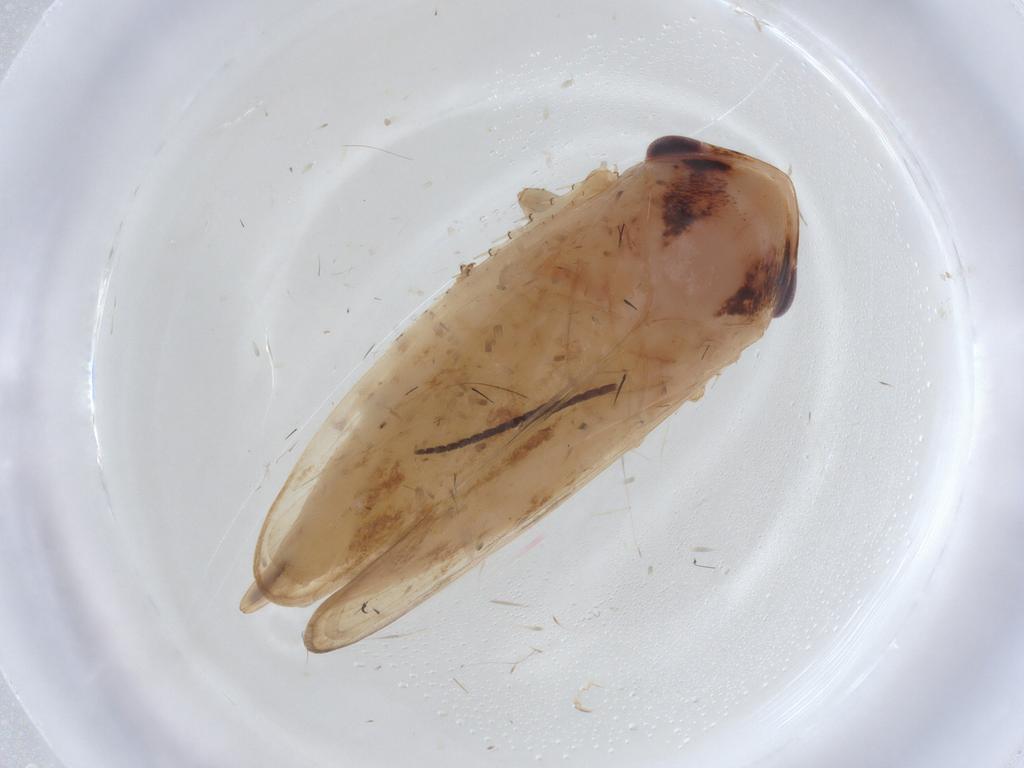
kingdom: Animalia
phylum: Arthropoda
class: Insecta
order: Hemiptera
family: Cicadellidae
